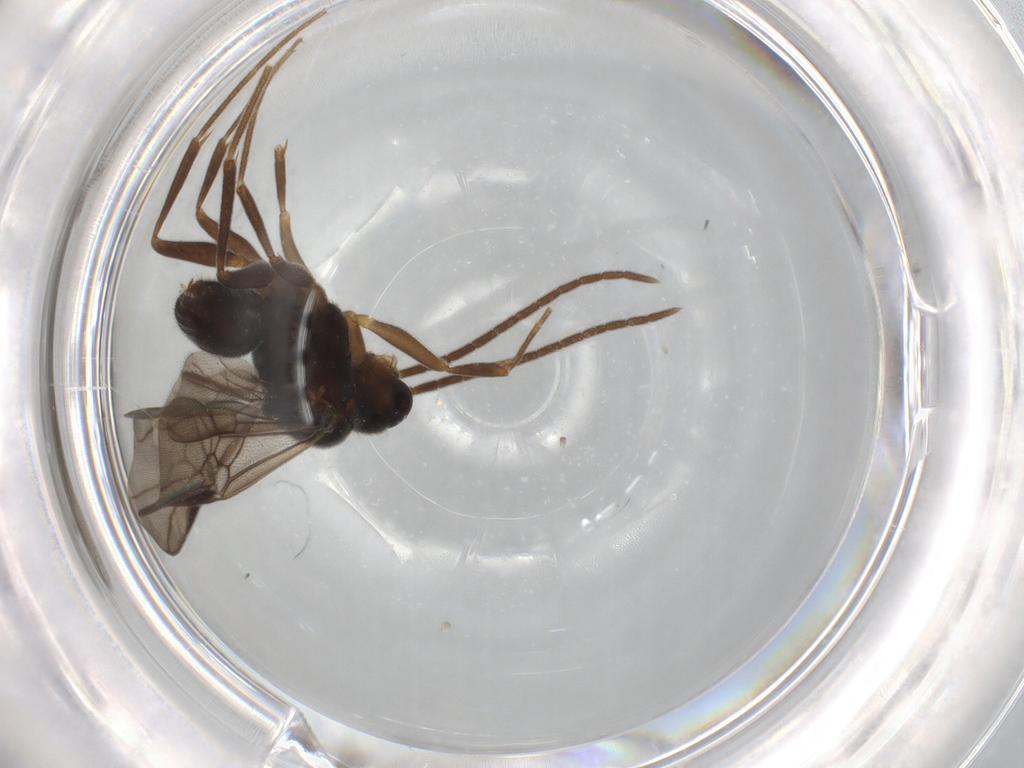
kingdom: Animalia
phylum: Arthropoda
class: Insecta
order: Hymenoptera
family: Formicidae
